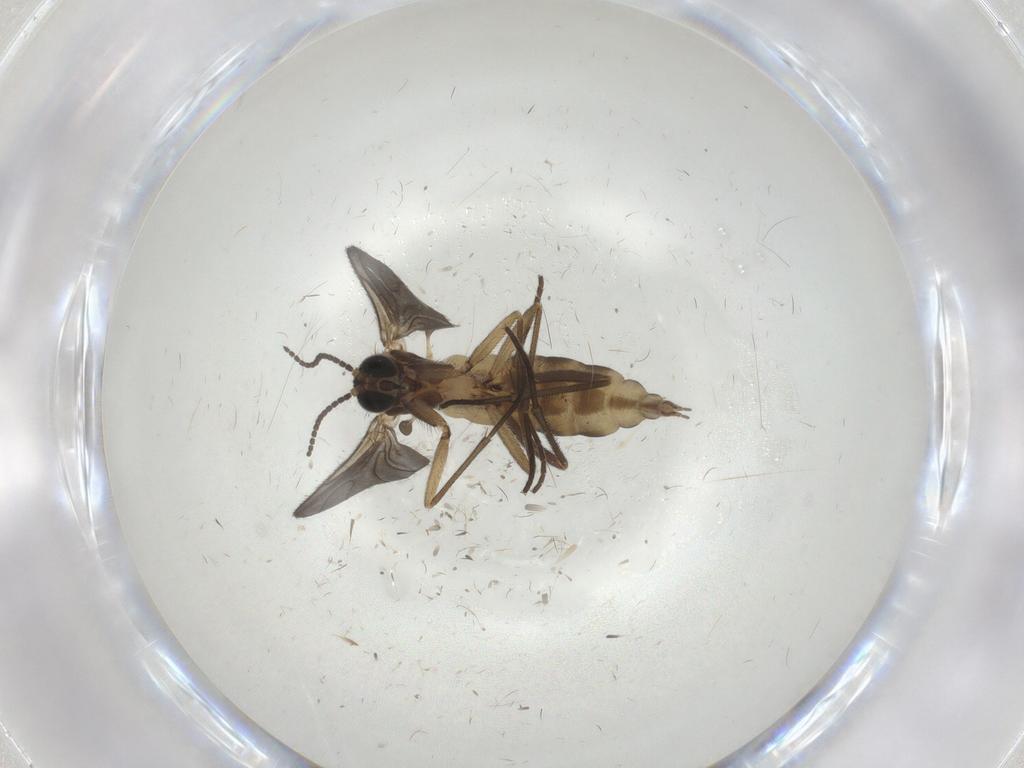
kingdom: Animalia
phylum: Arthropoda
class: Insecta
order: Diptera
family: Sciaridae
